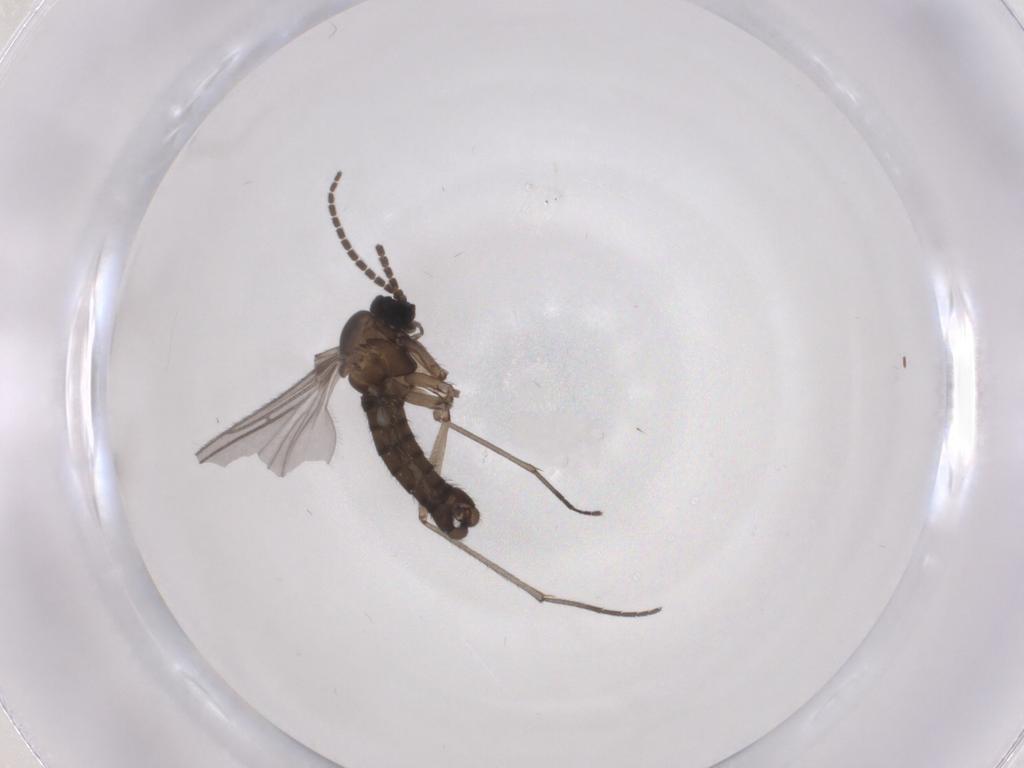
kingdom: Animalia
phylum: Arthropoda
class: Insecta
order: Diptera
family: Sciaridae
